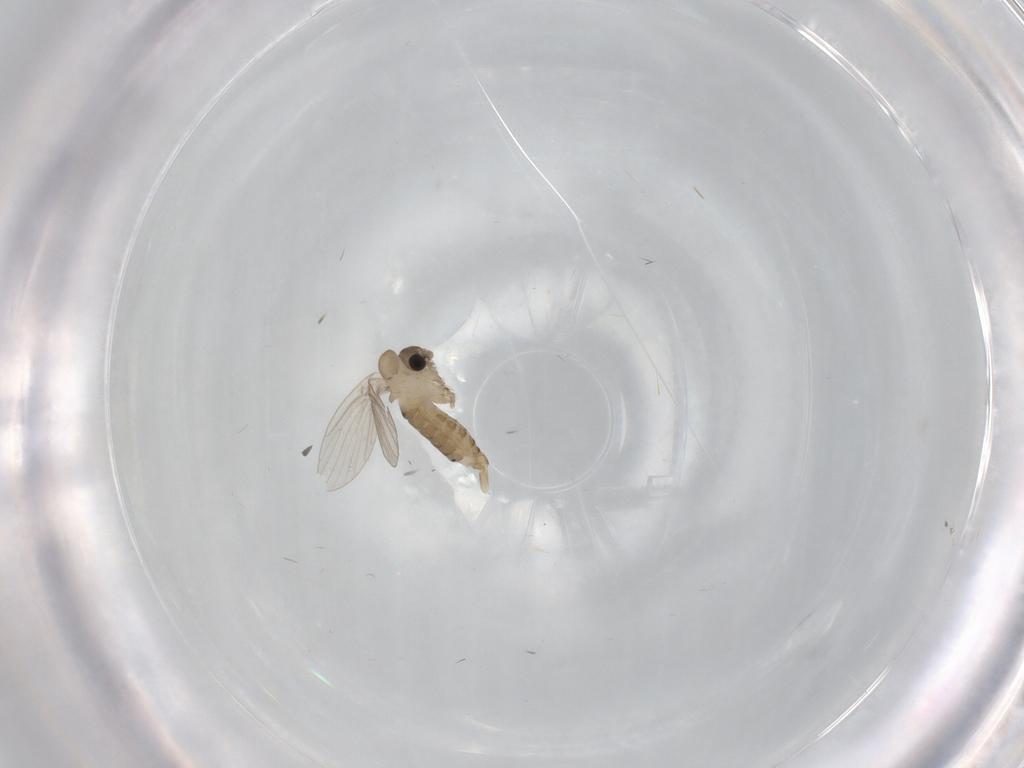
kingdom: Animalia
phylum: Arthropoda
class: Insecta
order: Diptera
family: Psychodidae
